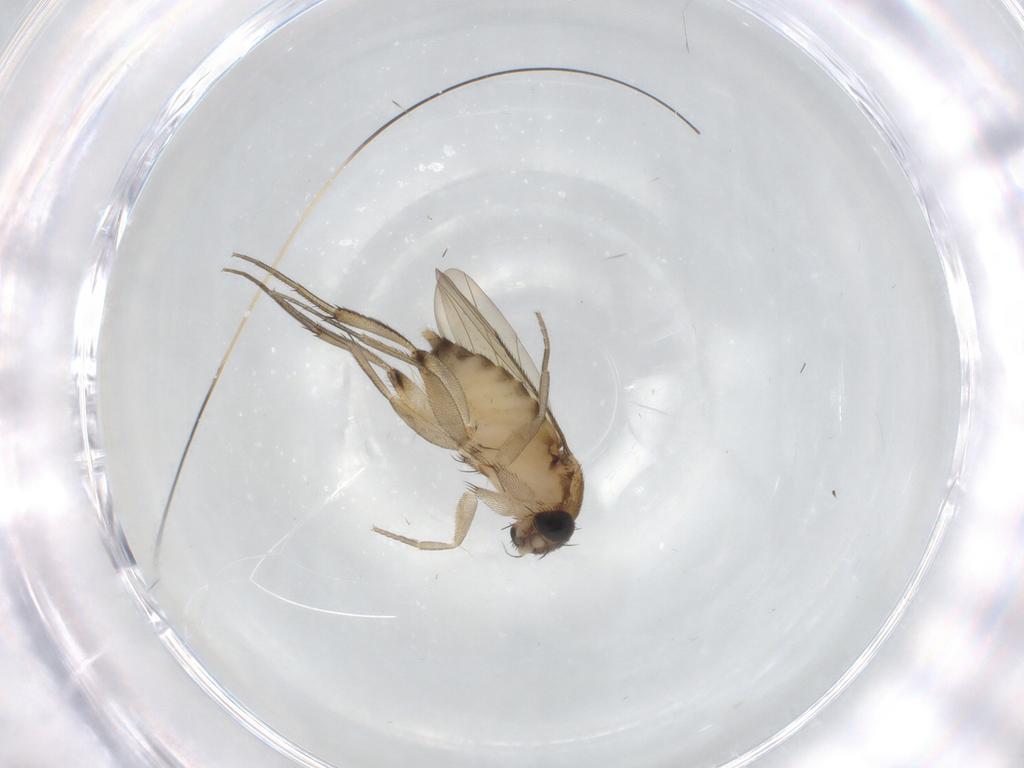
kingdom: Animalia
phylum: Arthropoda
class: Insecta
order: Diptera
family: Phoridae
